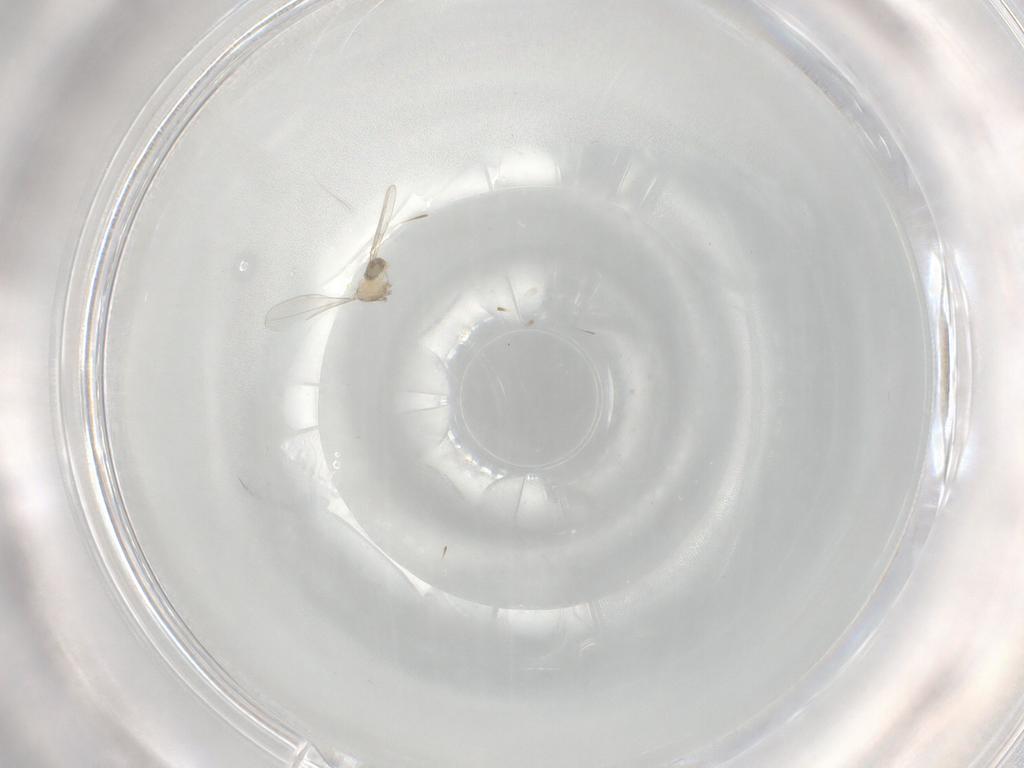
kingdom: Animalia
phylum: Arthropoda
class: Insecta
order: Diptera
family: Cecidomyiidae
